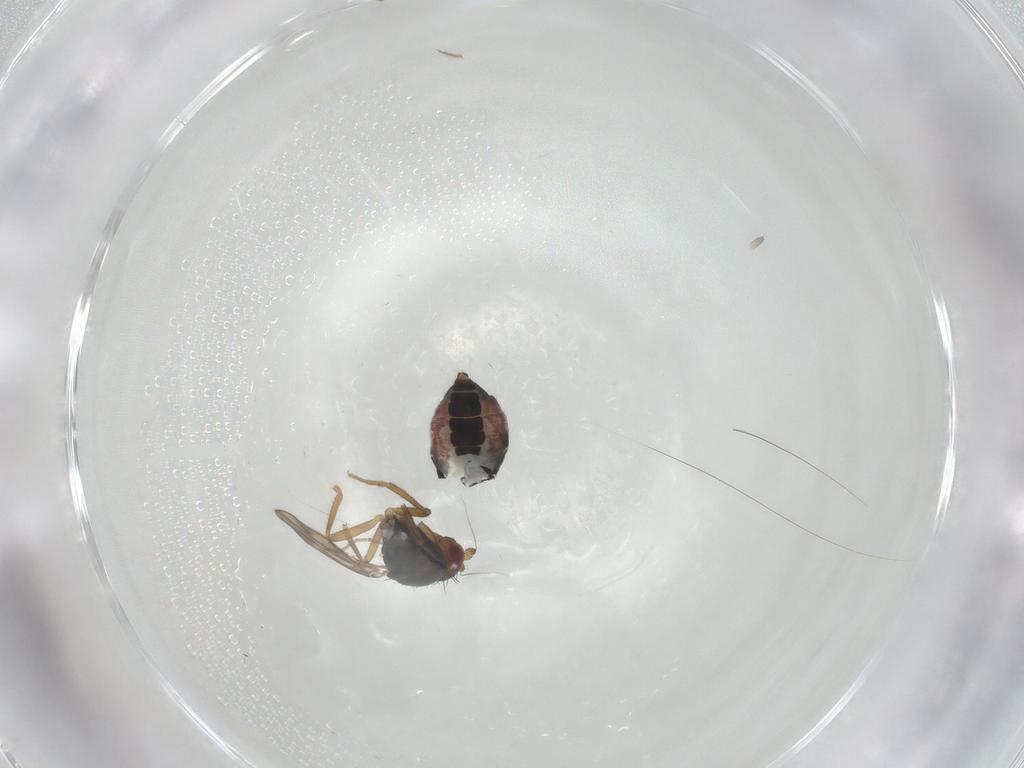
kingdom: Animalia
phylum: Arthropoda
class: Insecta
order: Diptera
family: Sphaeroceridae
